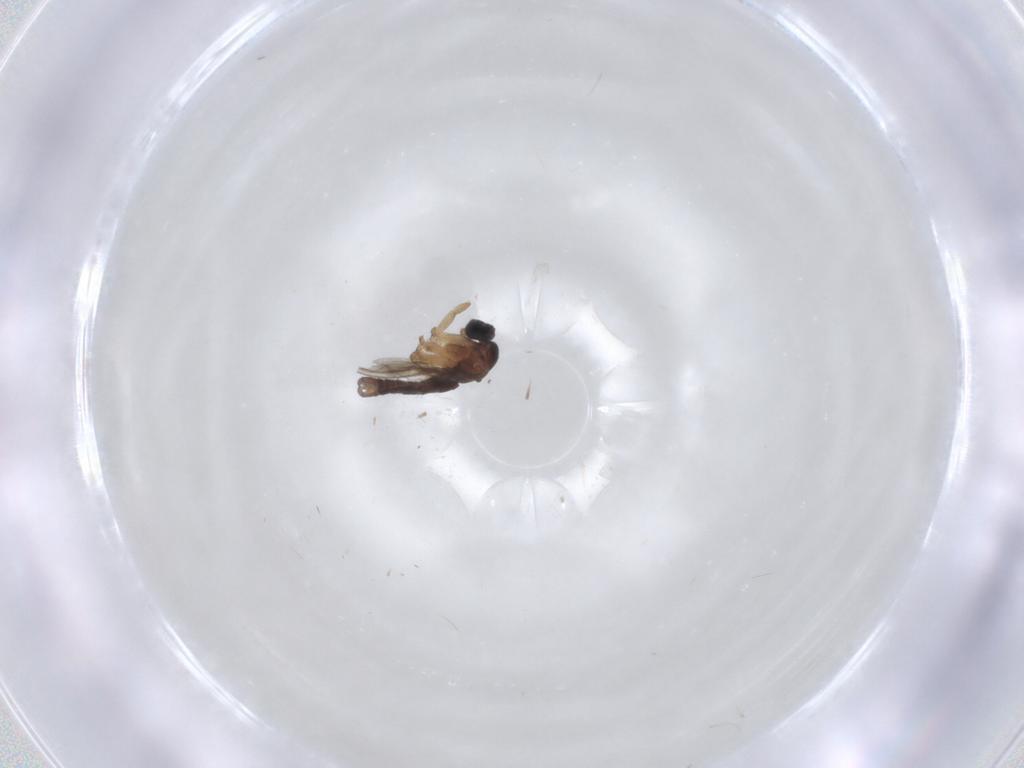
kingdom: Animalia
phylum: Arthropoda
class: Insecta
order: Diptera
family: Sciaridae
